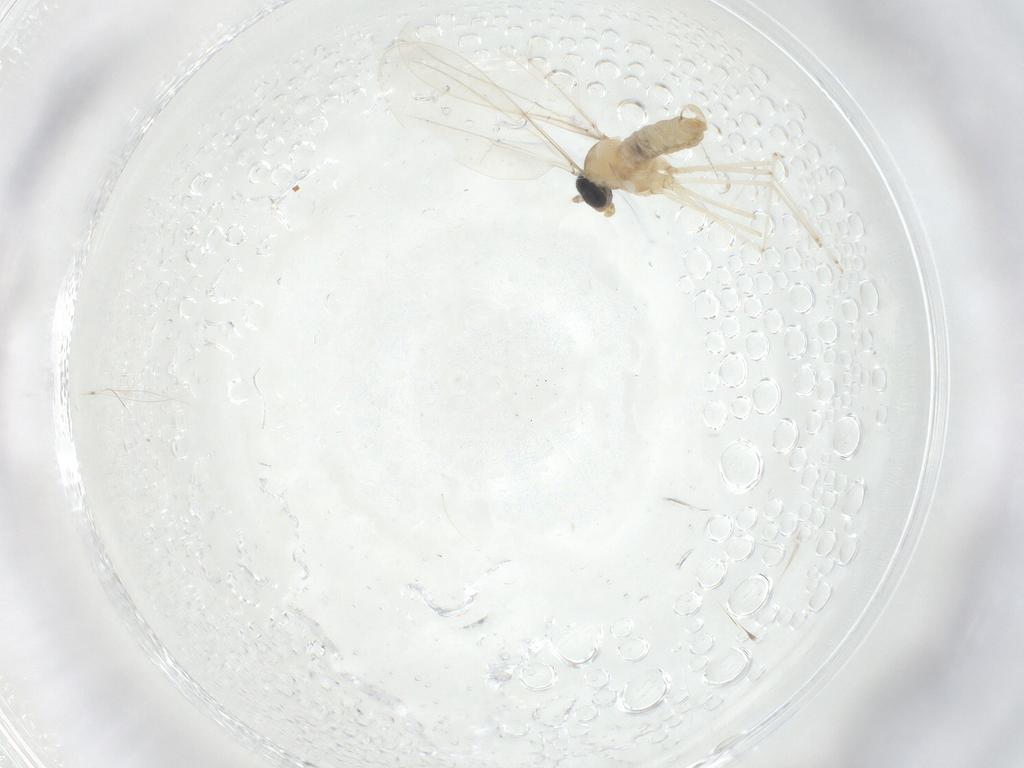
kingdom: Animalia
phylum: Arthropoda
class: Insecta
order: Diptera
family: Cecidomyiidae
